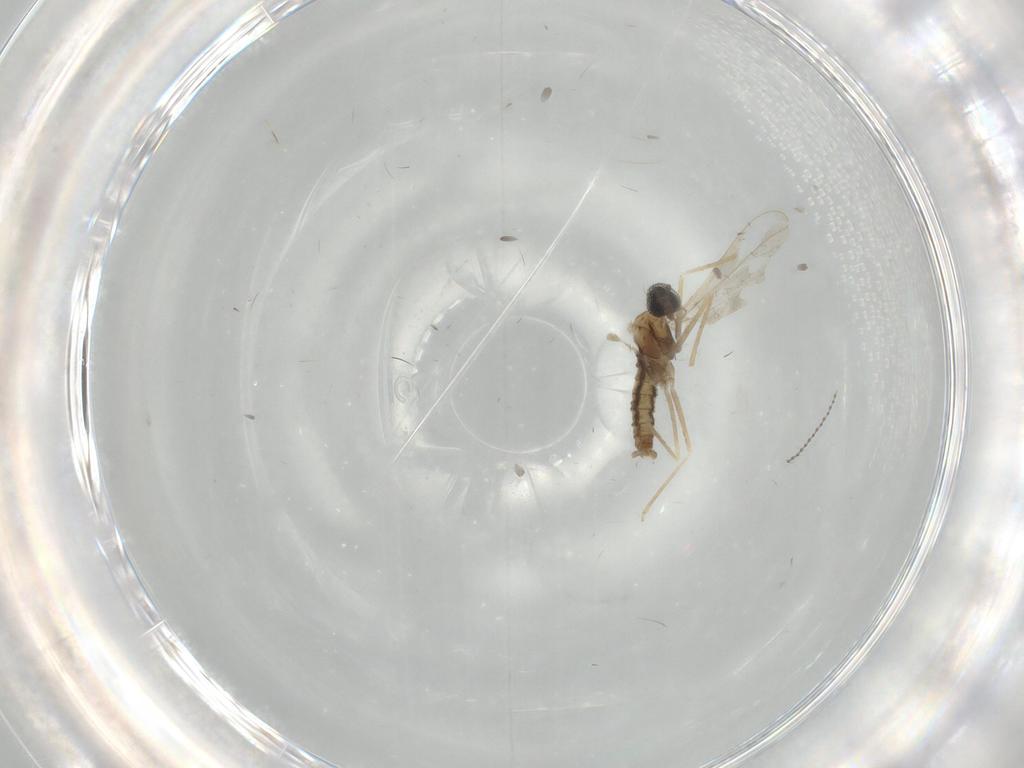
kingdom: Animalia
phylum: Arthropoda
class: Insecta
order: Diptera
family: Cecidomyiidae
